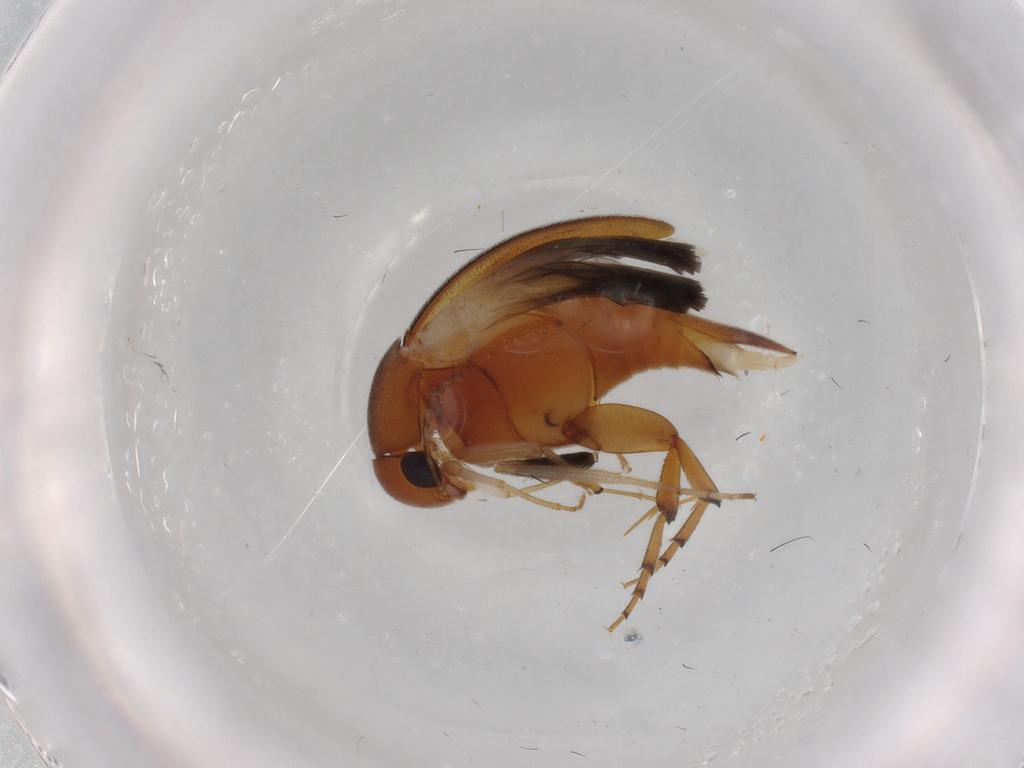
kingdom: Animalia
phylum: Arthropoda
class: Insecta
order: Coleoptera
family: Mordellidae
